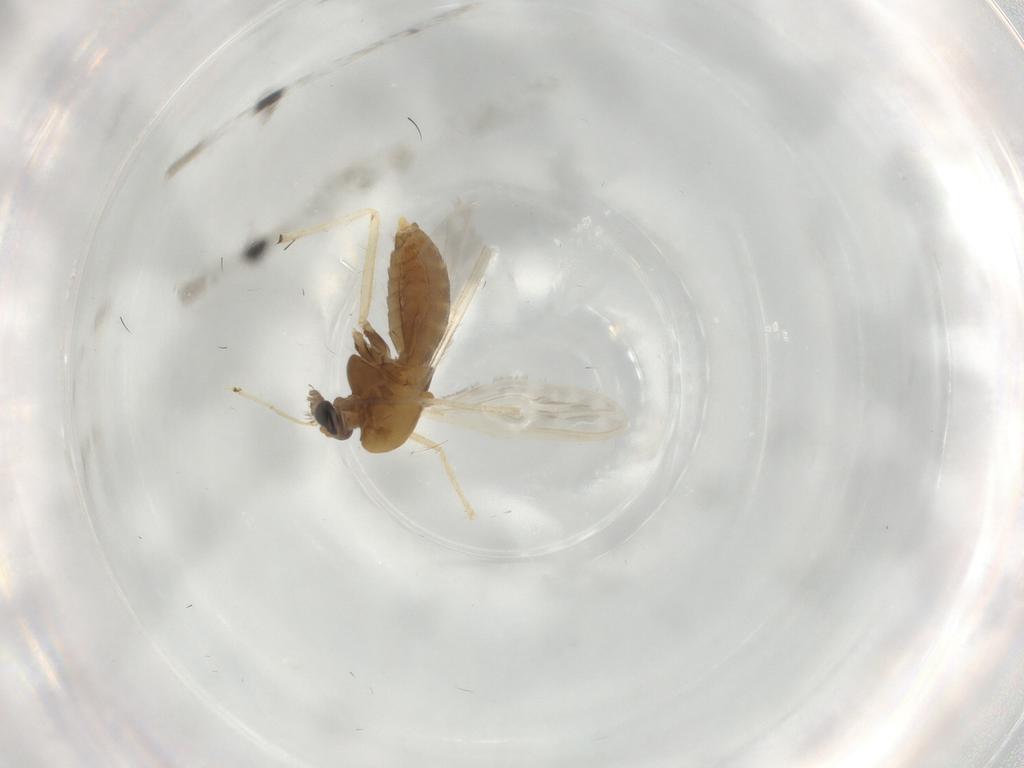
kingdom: Animalia
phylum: Arthropoda
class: Insecta
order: Diptera
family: Chironomidae
